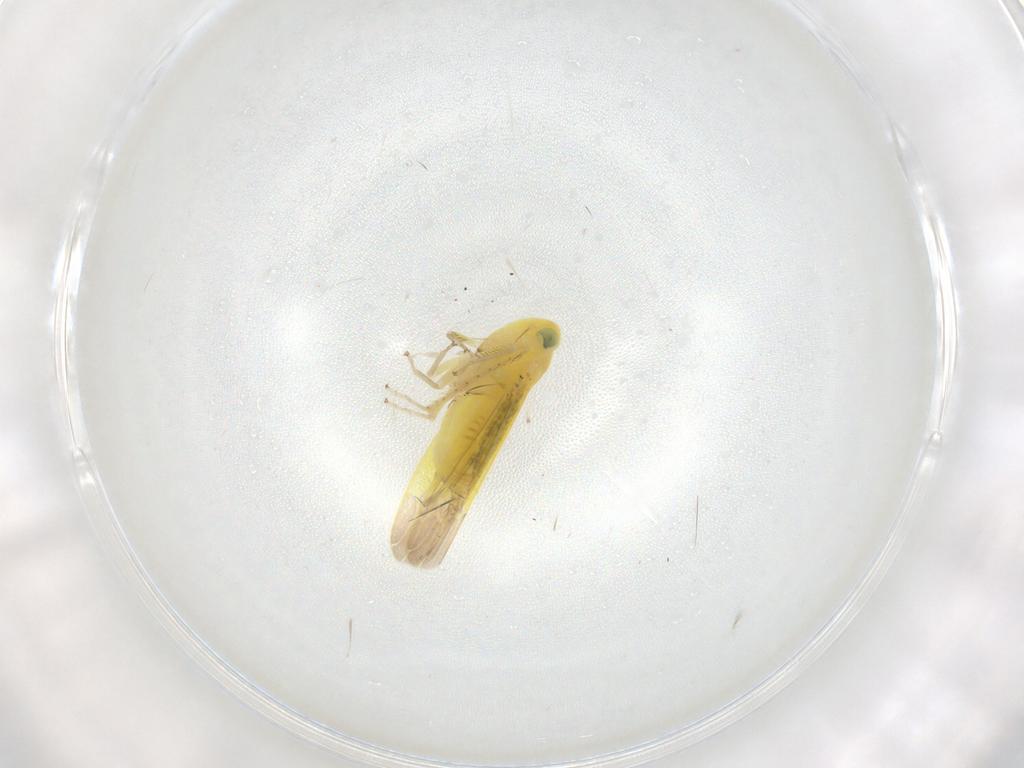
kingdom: Animalia
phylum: Arthropoda
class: Insecta
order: Hemiptera
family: Cicadellidae
